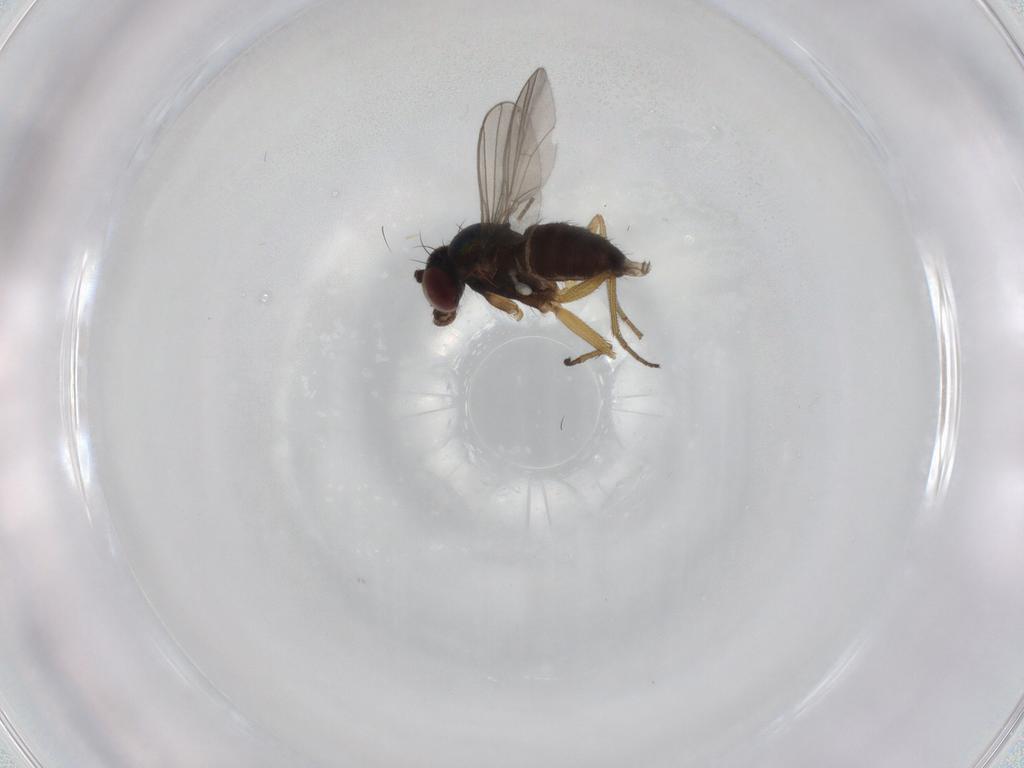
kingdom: Animalia
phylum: Arthropoda
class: Insecta
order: Diptera
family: Dolichopodidae
